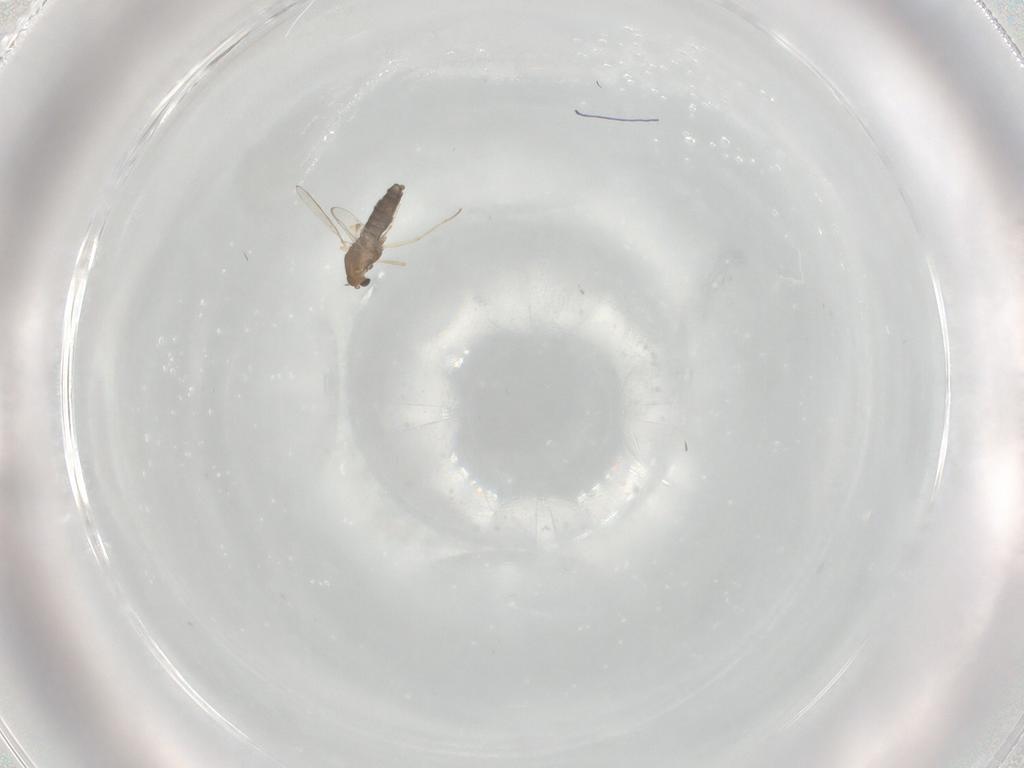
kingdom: Animalia
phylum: Arthropoda
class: Insecta
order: Diptera
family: Chironomidae
